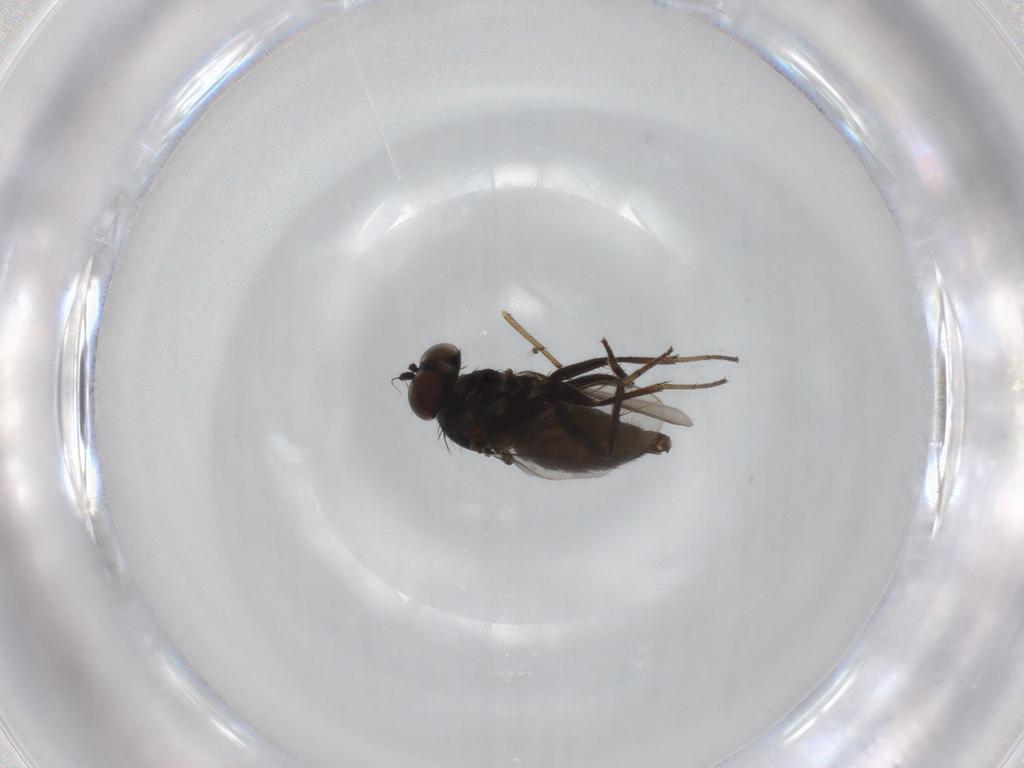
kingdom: Animalia
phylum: Arthropoda
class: Insecta
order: Diptera
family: Dolichopodidae
